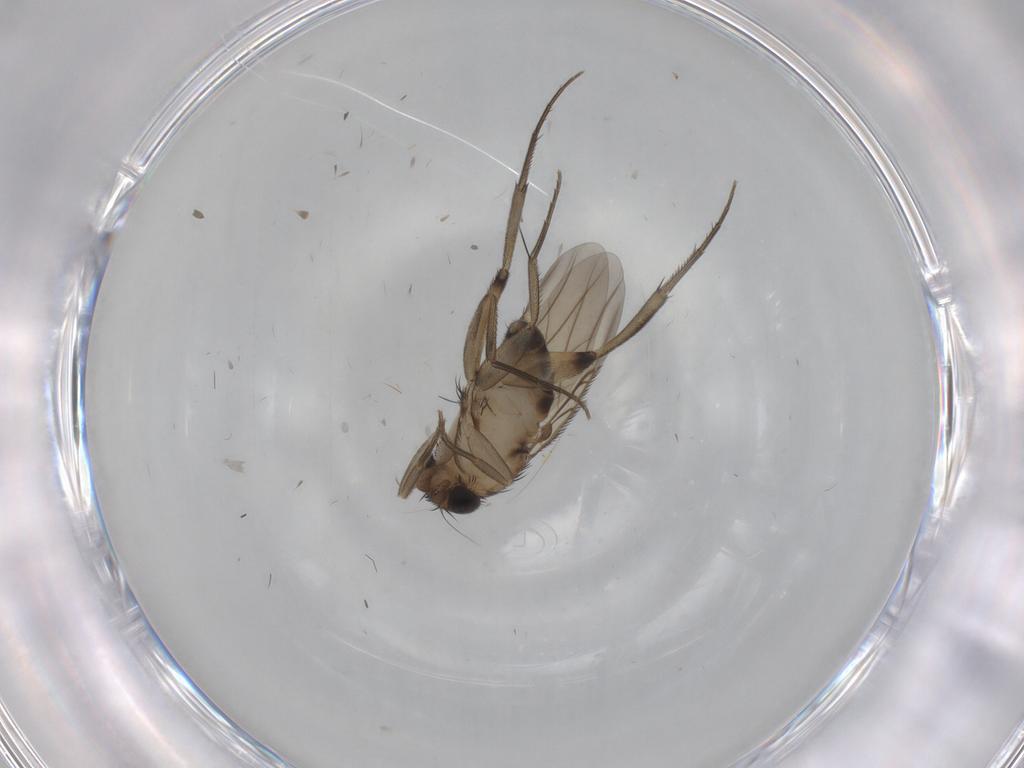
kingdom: Animalia
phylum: Arthropoda
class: Insecta
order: Diptera
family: Phoridae
